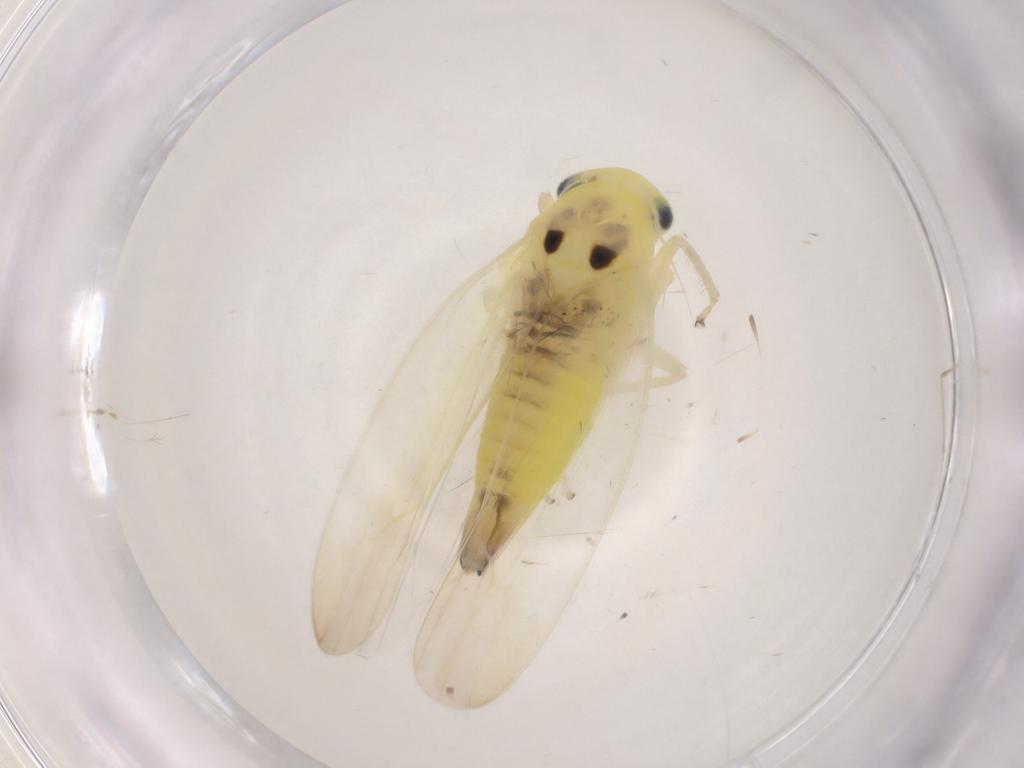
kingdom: Animalia
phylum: Arthropoda
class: Insecta
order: Hemiptera
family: Cicadellidae
